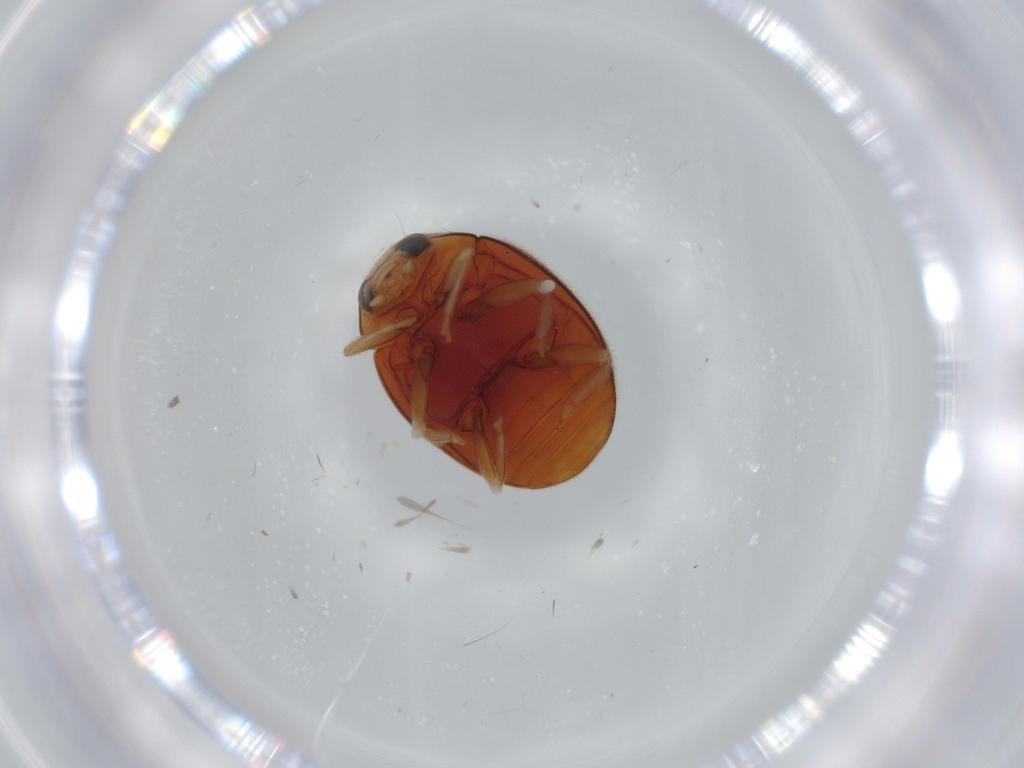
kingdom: Animalia
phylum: Arthropoda
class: Insecta
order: Coleoptera
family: Coccinellidae
